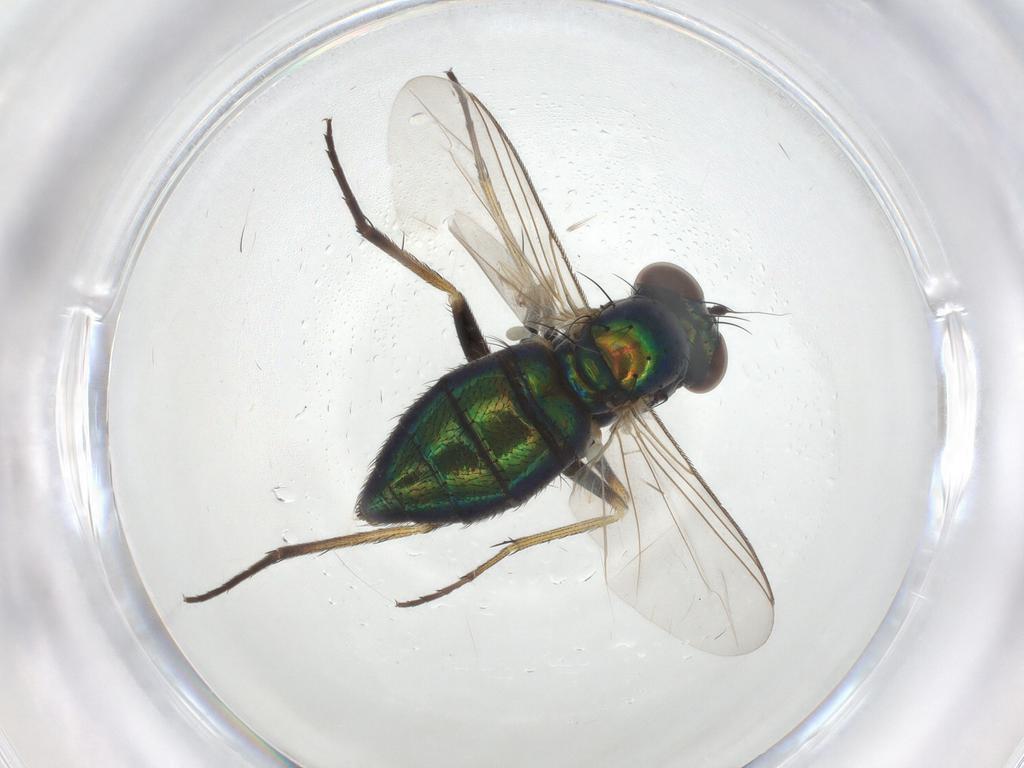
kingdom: Animalia
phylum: Arthropoda
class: Insecta
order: Diptera
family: Dolichopodidae
